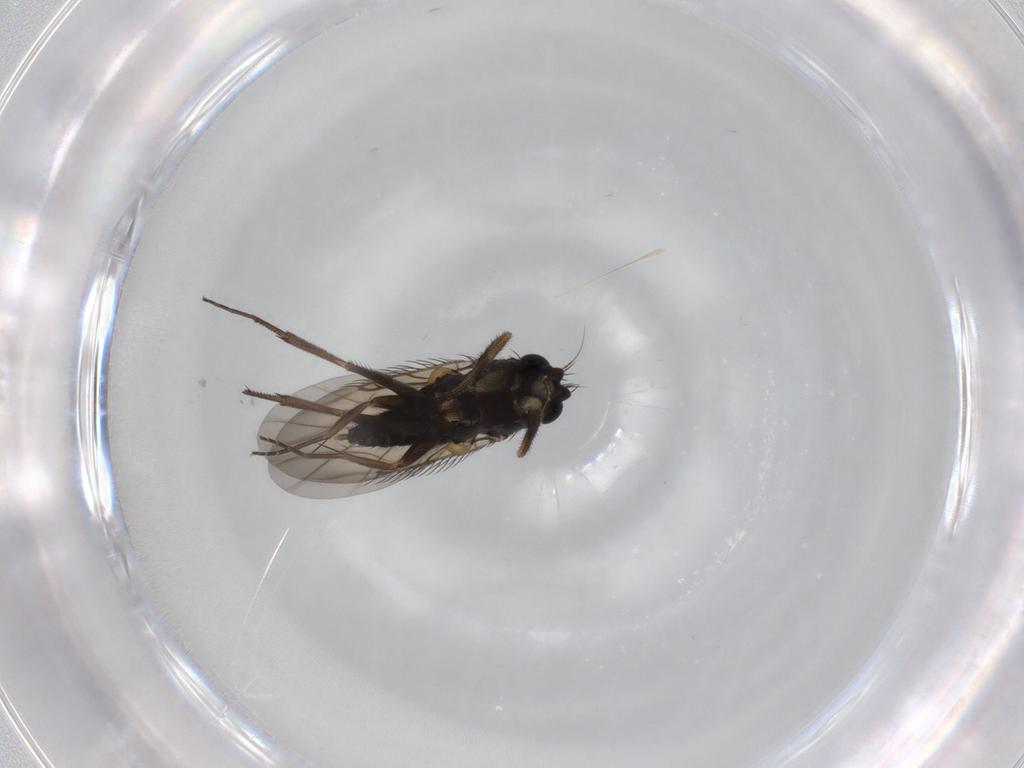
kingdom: Animalia
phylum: Arthropoda
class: Insecta
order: Diptera
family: Phoridae
